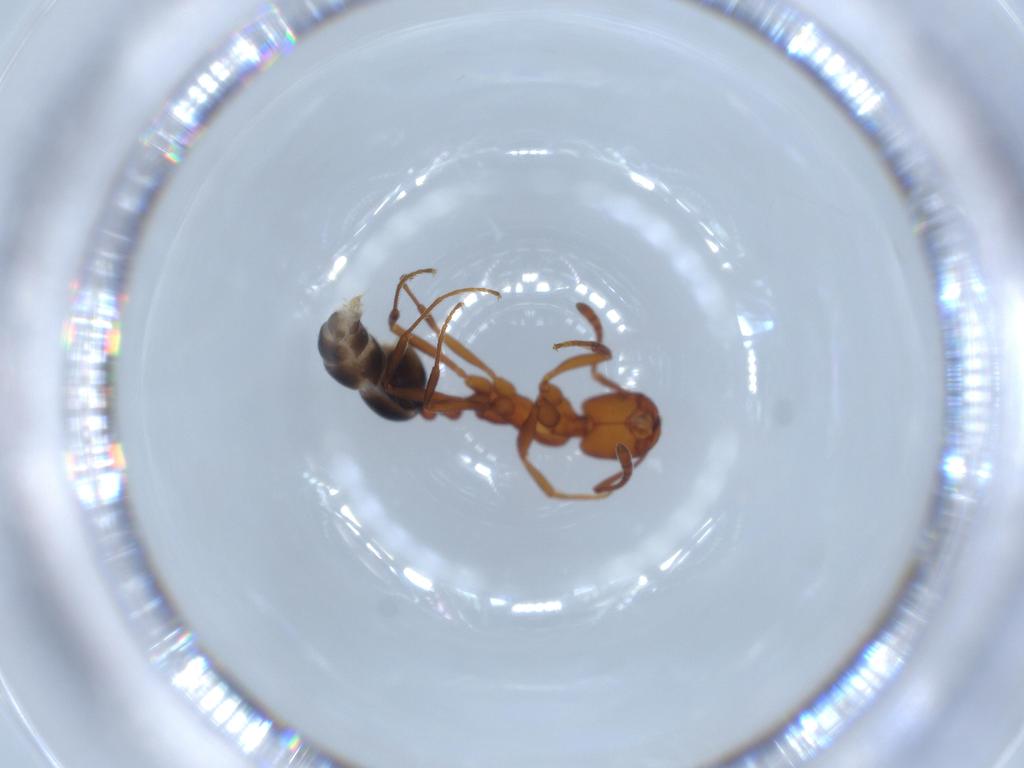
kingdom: Animalia
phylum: Arthropoda
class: Insecta
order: Hymenoptera
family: Formicidae
